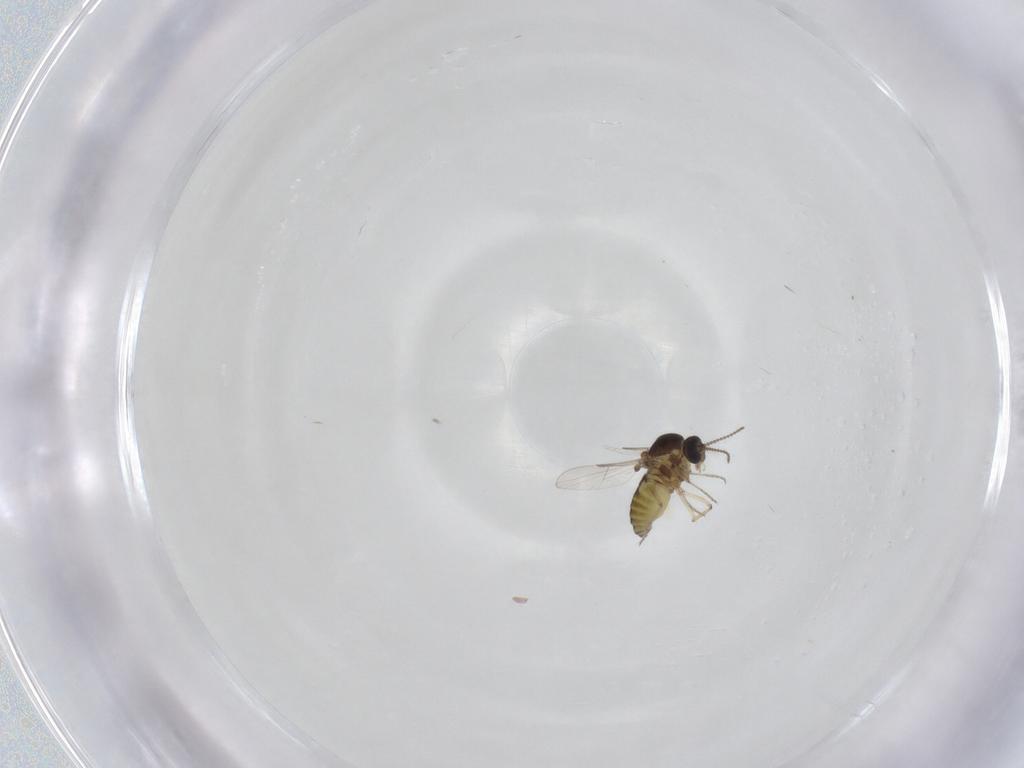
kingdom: Animalia
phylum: Arthropoda
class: Insecta
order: Diptera
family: Ceratopogonidae
